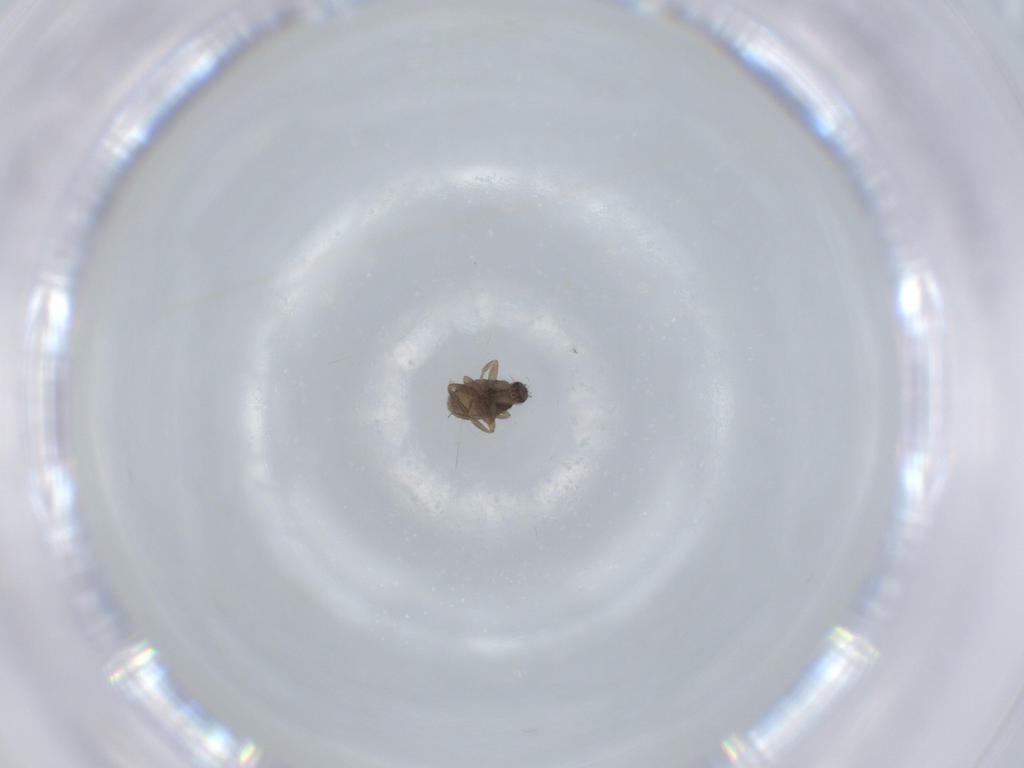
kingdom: Animalia
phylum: Arthropoda
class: Insecta
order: Diptera
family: Phoridae
